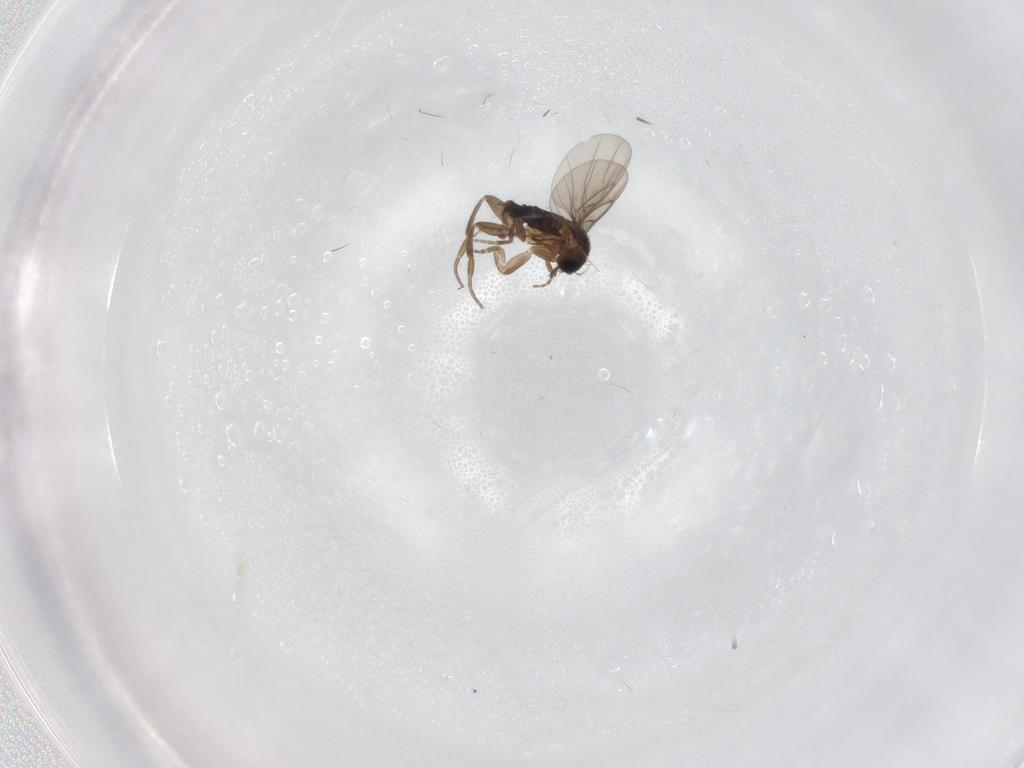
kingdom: Animalia
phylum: Arthropoda
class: Insecta
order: Diptera
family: Phoridae
